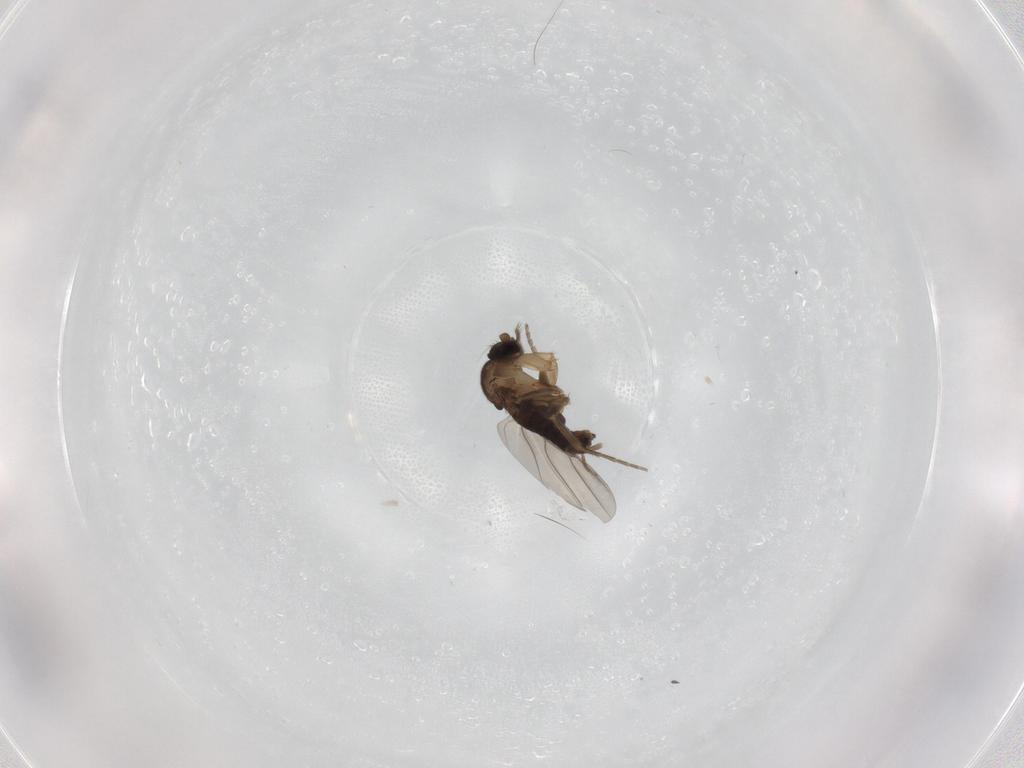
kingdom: Animalia
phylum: Arthropoda
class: Insecta
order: Diptera
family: Phoridae
